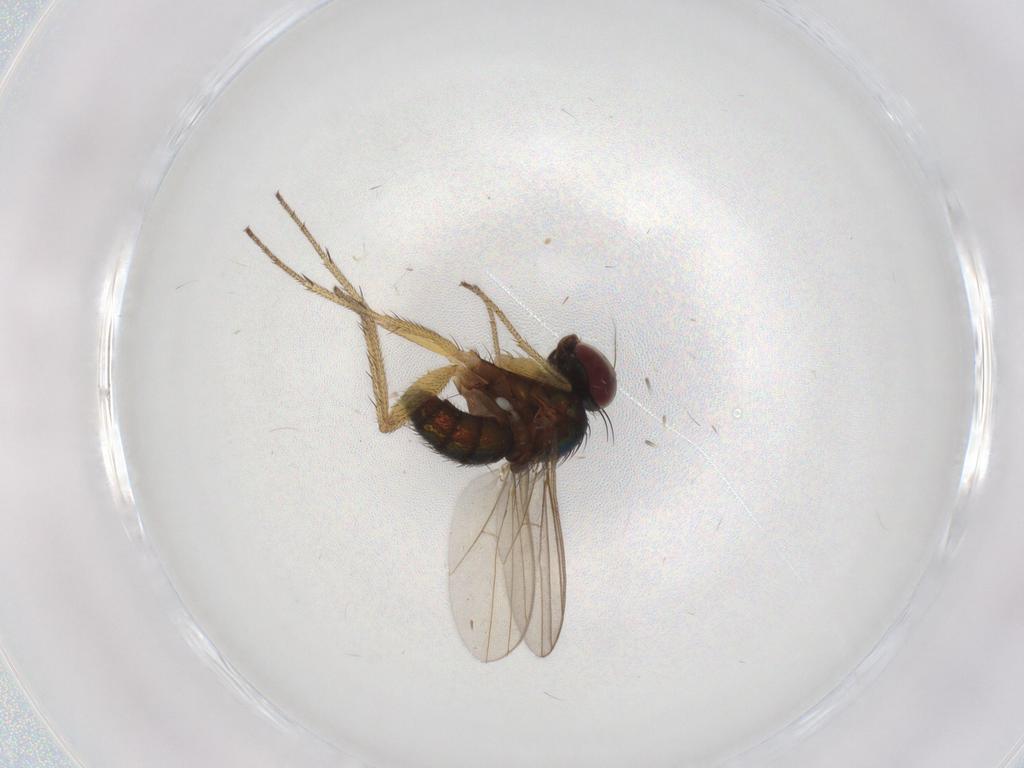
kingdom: Animalia
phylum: Arthropoda
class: Insecta
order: Diptera
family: Dolichopodidae
